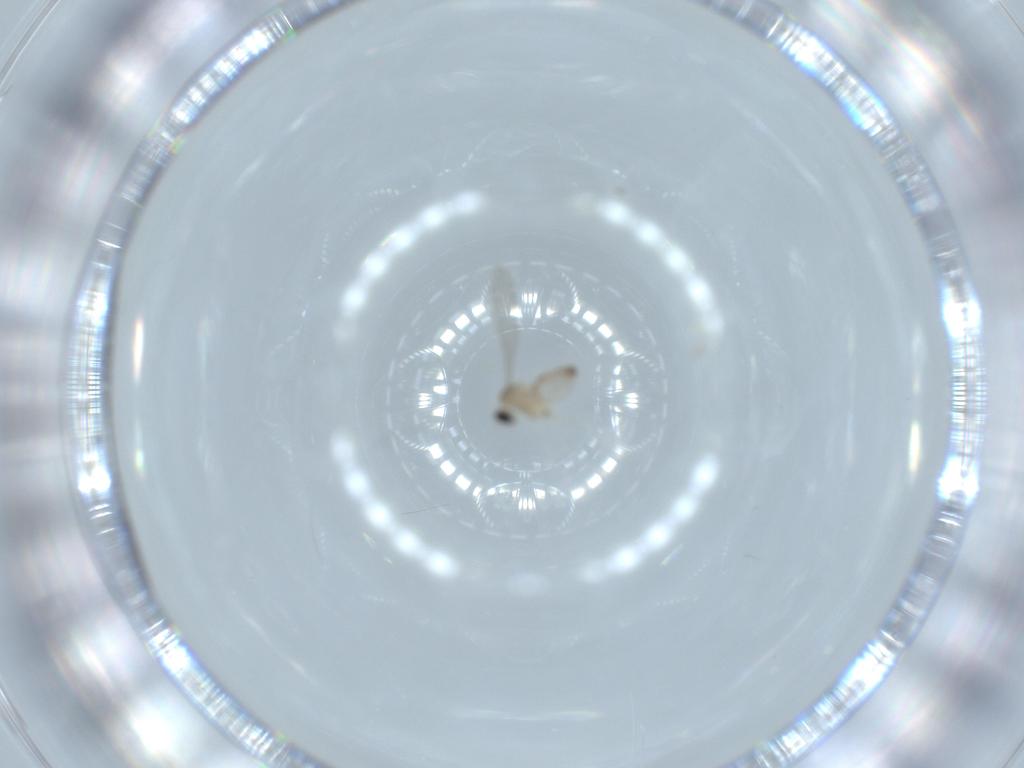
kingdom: Animalia
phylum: Arthropoda
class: Insecta
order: Diptera
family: Cecidomyiidae
